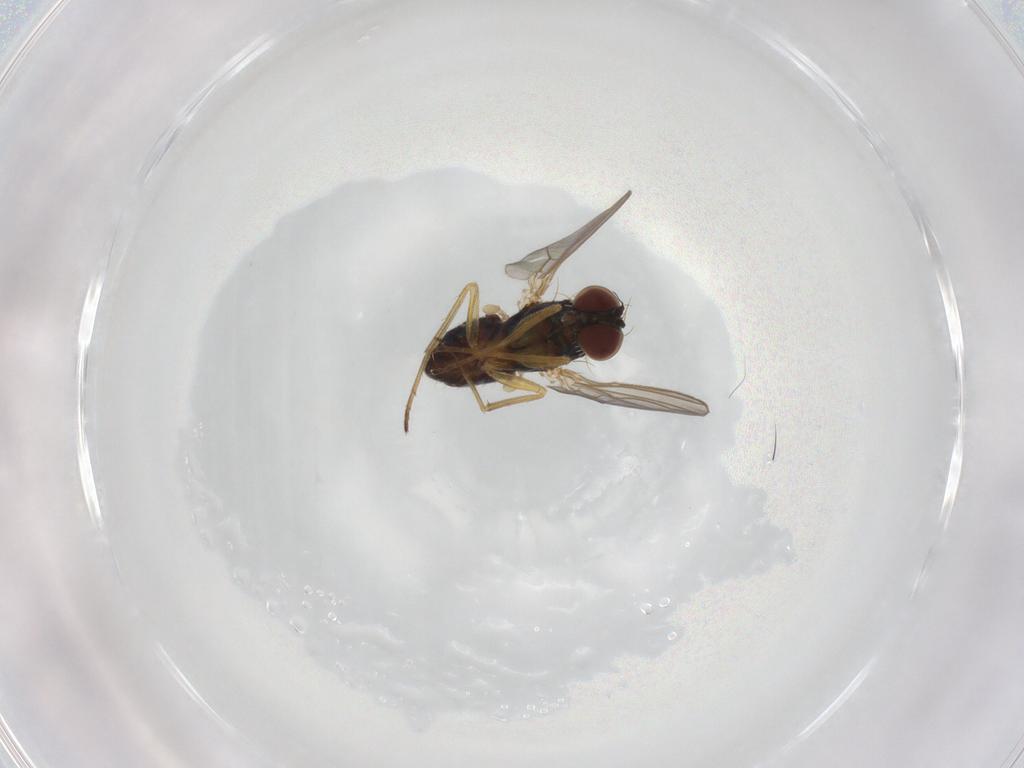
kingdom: Animalia
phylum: Arthropoda
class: Insecta
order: Diptera
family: Dolichopodidae
